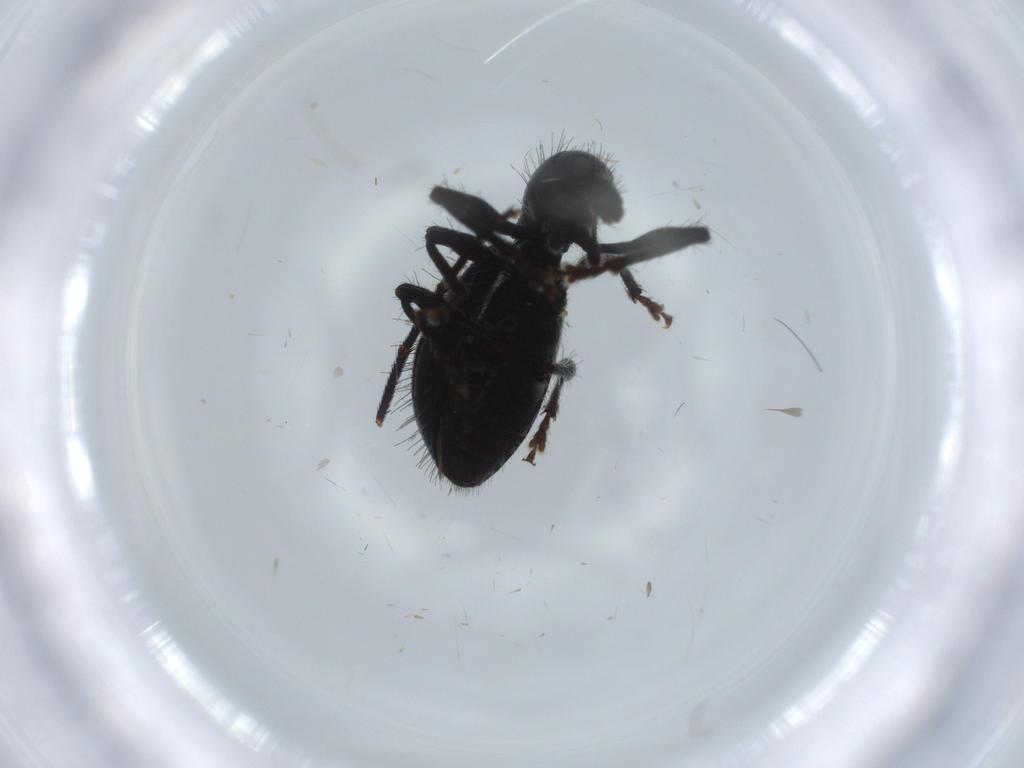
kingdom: Animalia
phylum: Arthropoda
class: Insecta
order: Coleoptera
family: Curculionidae
